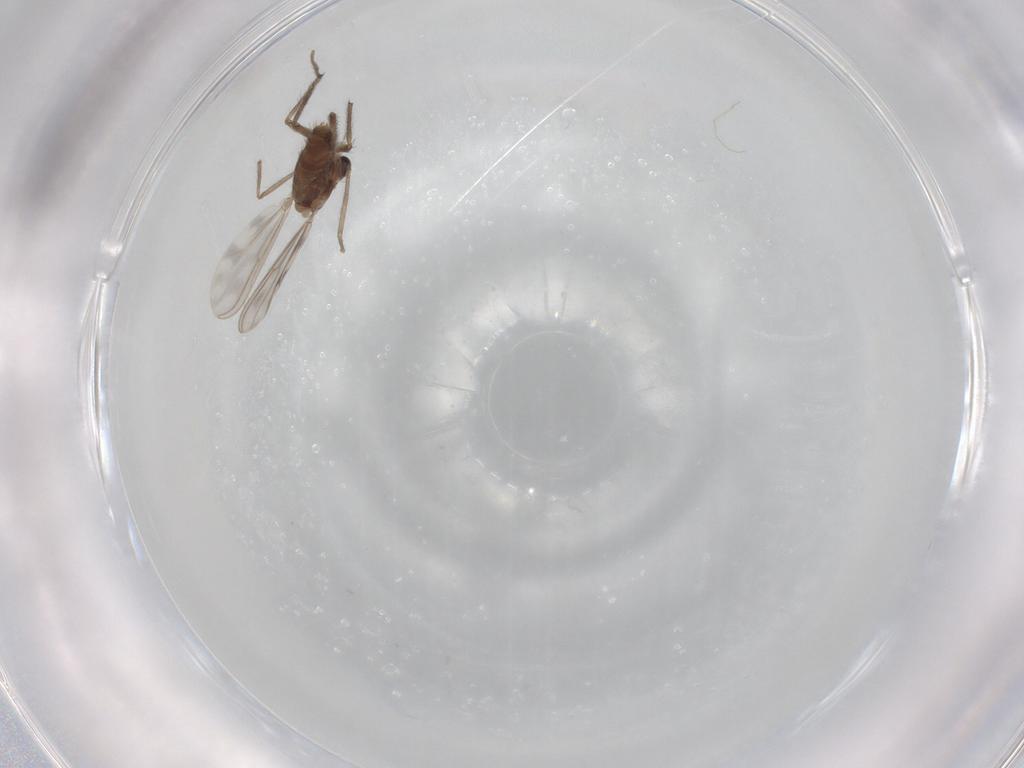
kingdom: Animalia
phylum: Arthropoda
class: Insecta
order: Diptera
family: Chironomidae
